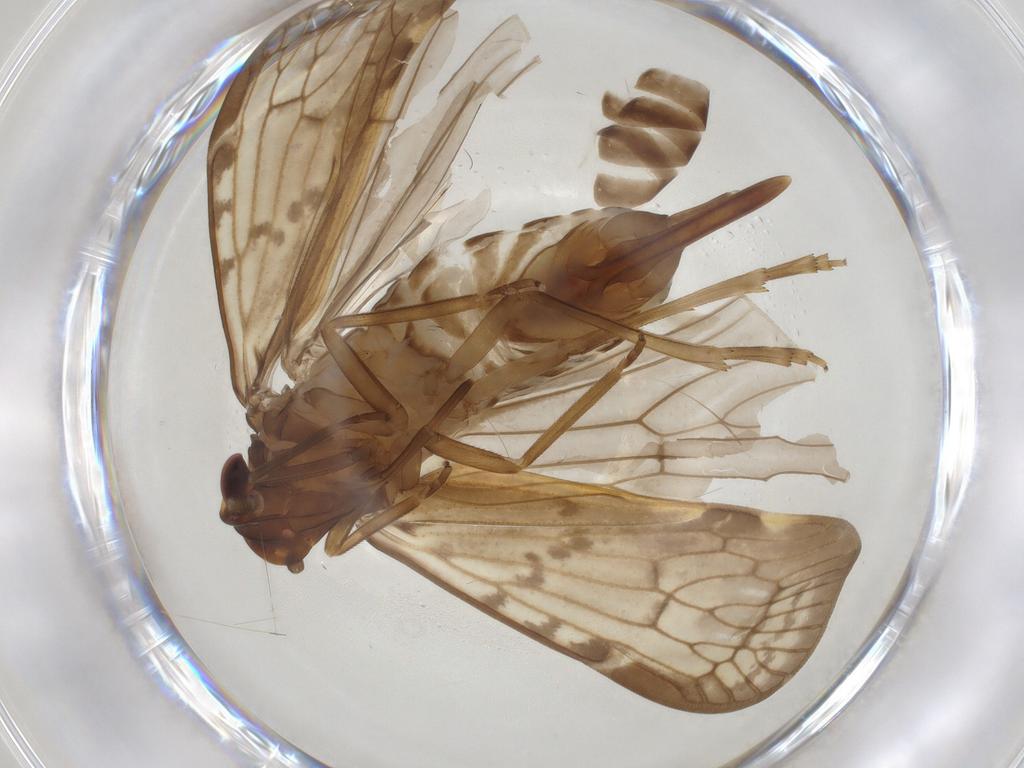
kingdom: Animalia
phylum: Arthropoda
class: Insecta
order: Hemiptera
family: Cixiidae
